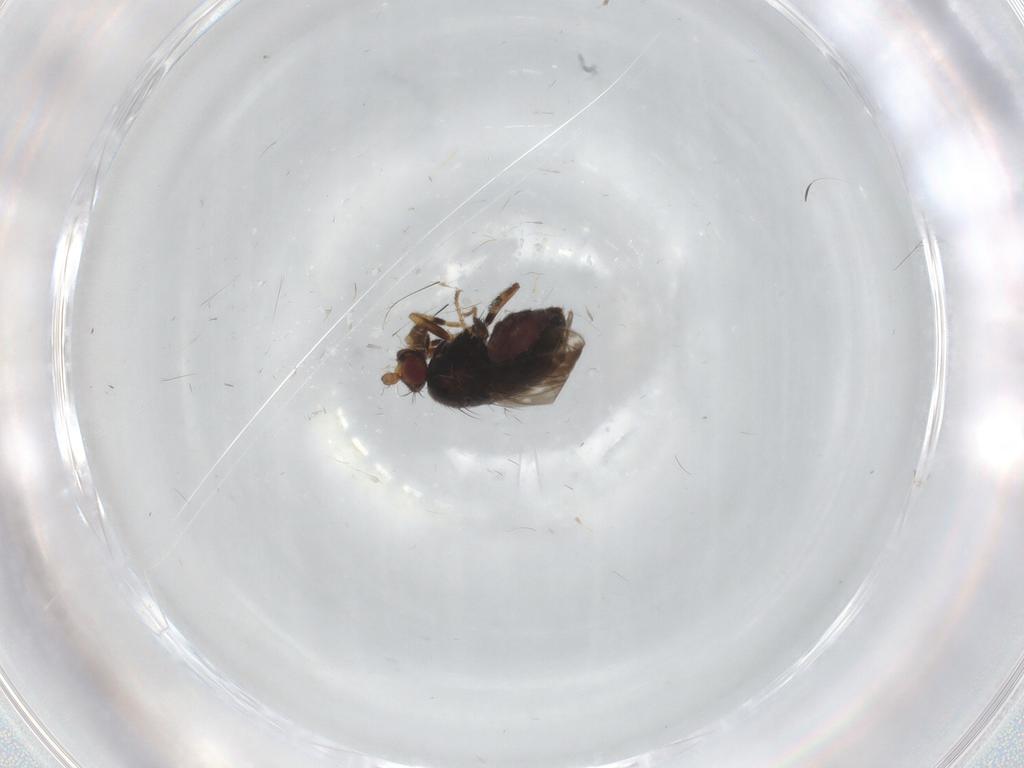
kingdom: Animalia
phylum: Arthropoda
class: Insecta
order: Diptera
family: Sphaeroceridae
